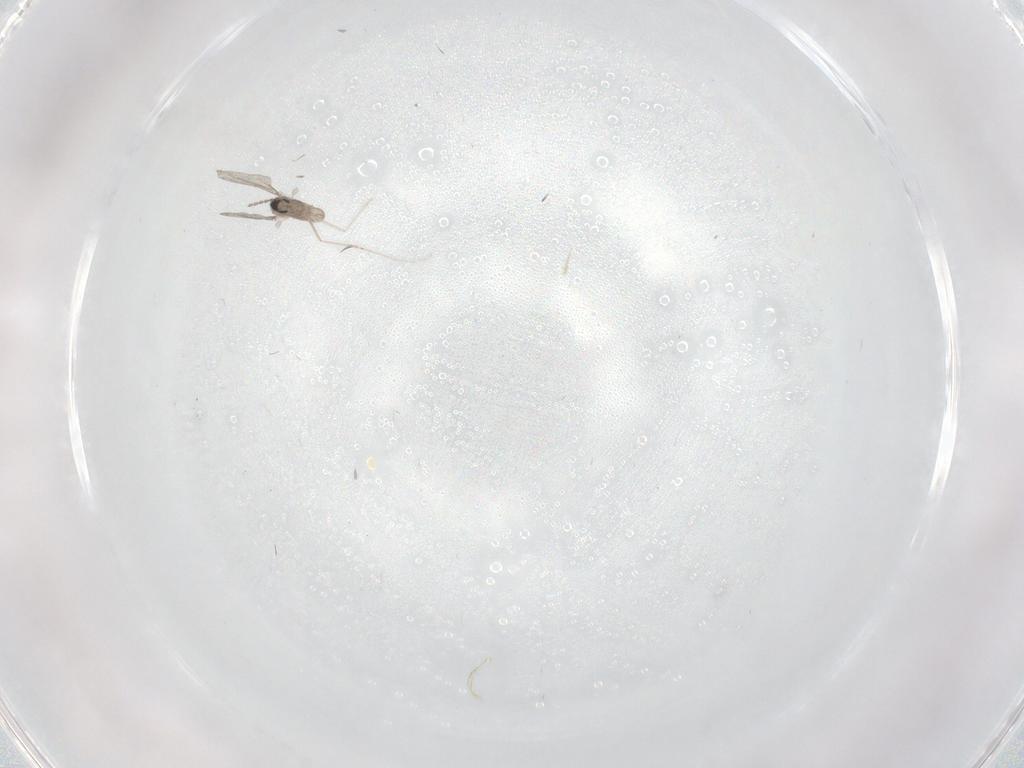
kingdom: Animalia
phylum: Arthropoda
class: Insecta
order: Diptera
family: Cecidomyiidae
